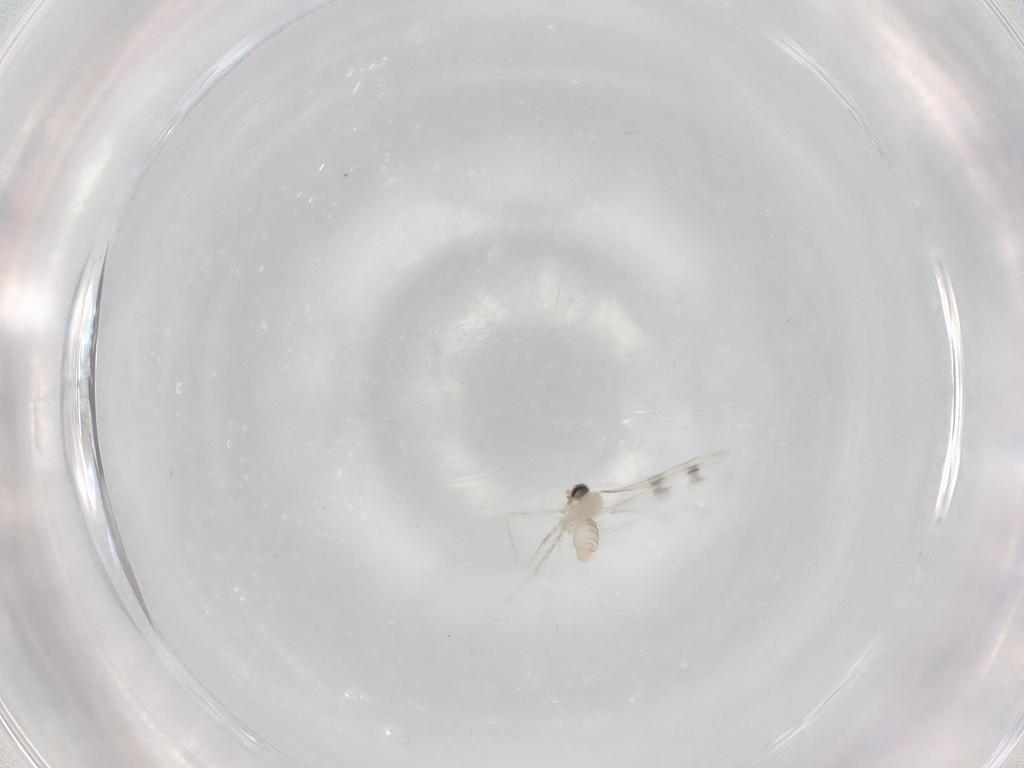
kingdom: Animalia
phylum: Arthropoda
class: Insecta
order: Diptera
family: Cecidomyiidae
